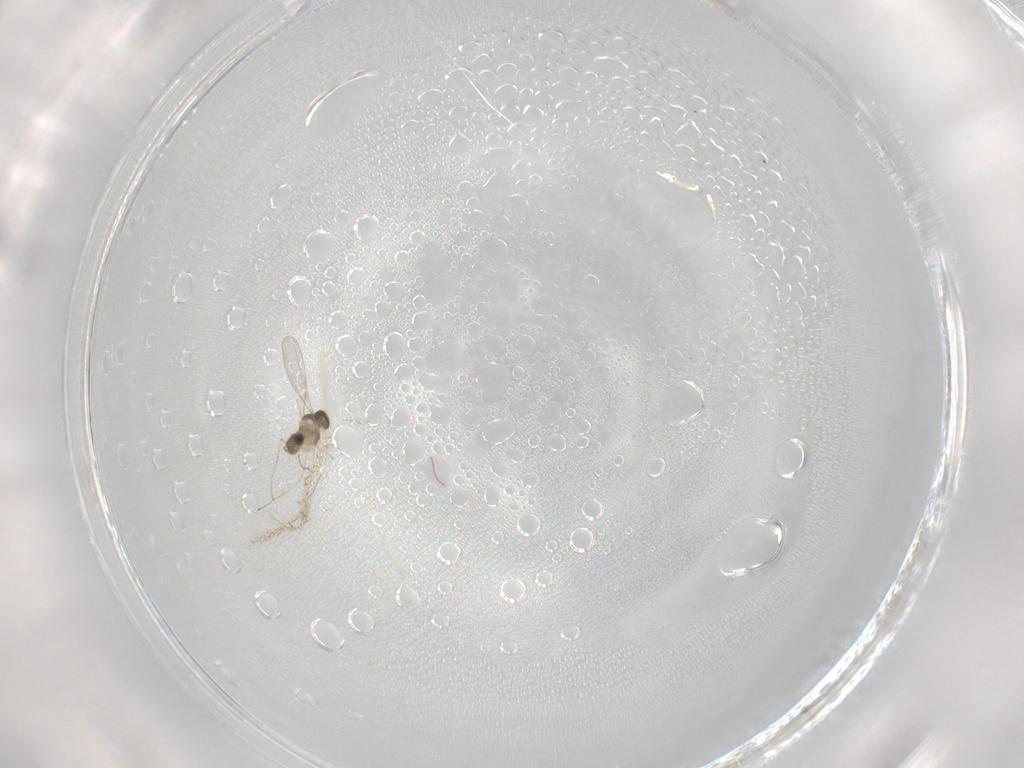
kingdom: Animalia
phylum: Arthropoda
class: Insecta
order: Diptera
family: Cecidomyiidae
